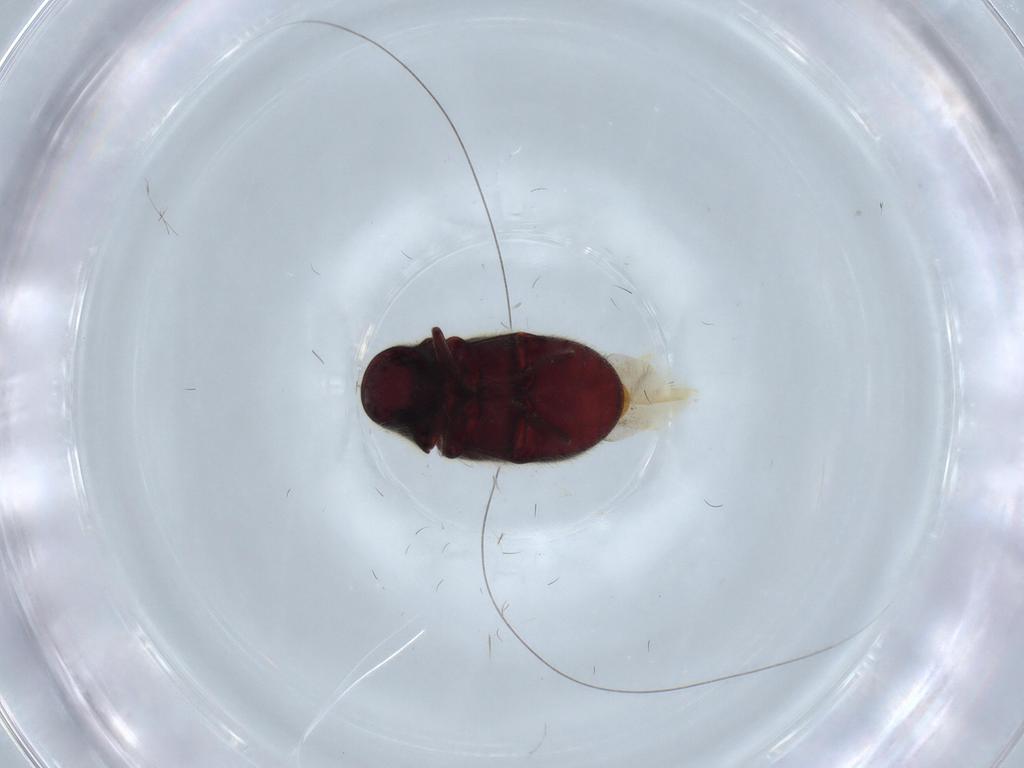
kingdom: Animalia
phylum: Arthropoda
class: Insecta
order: Coleoptera
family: Ptinidae
